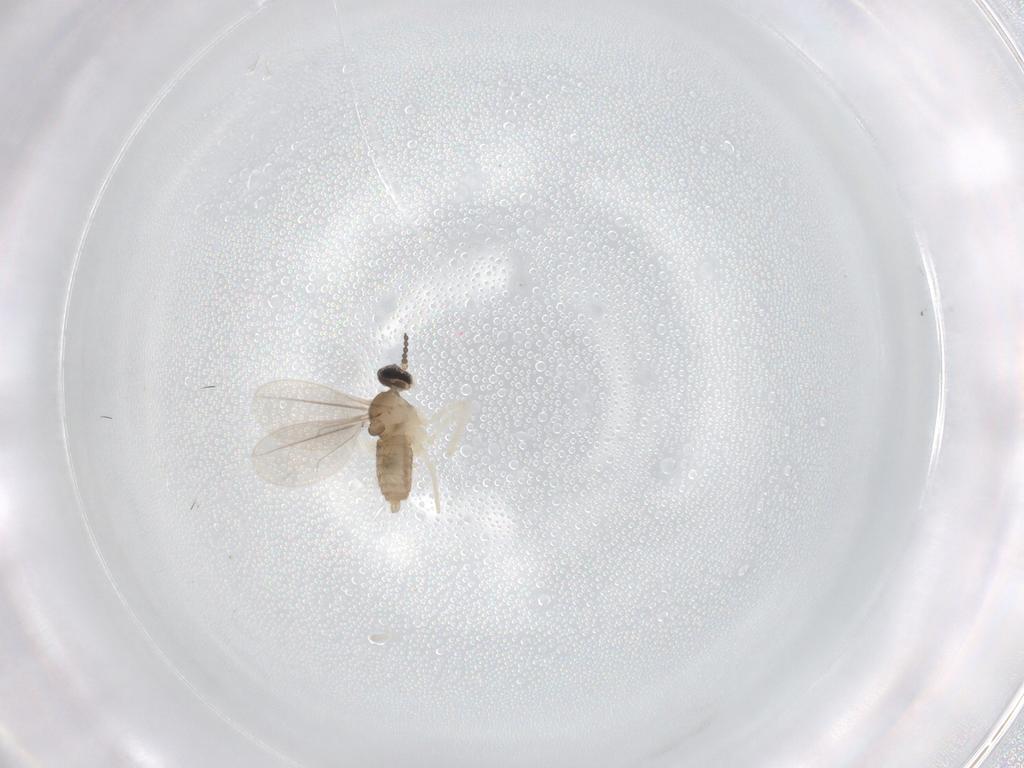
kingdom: Animalia
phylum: Arthropoda
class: Insecta
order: Diptera
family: Cecidomyiidae
